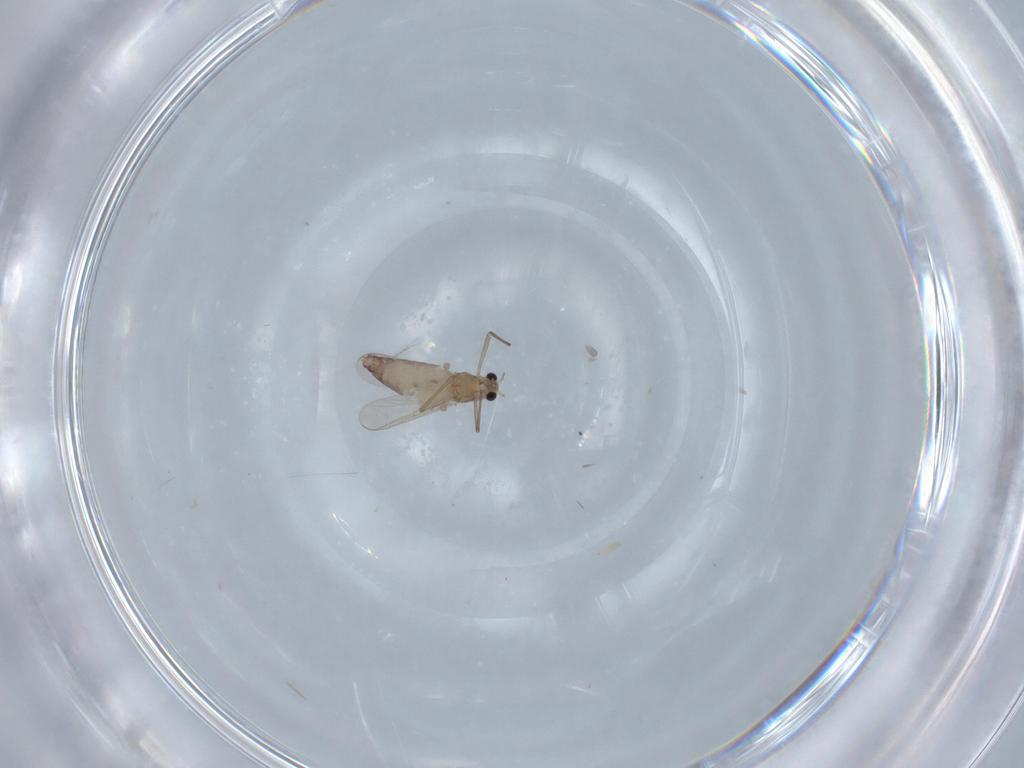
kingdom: Animalia
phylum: Arthropoda
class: Insecta
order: Diptera
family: Chironomidae
